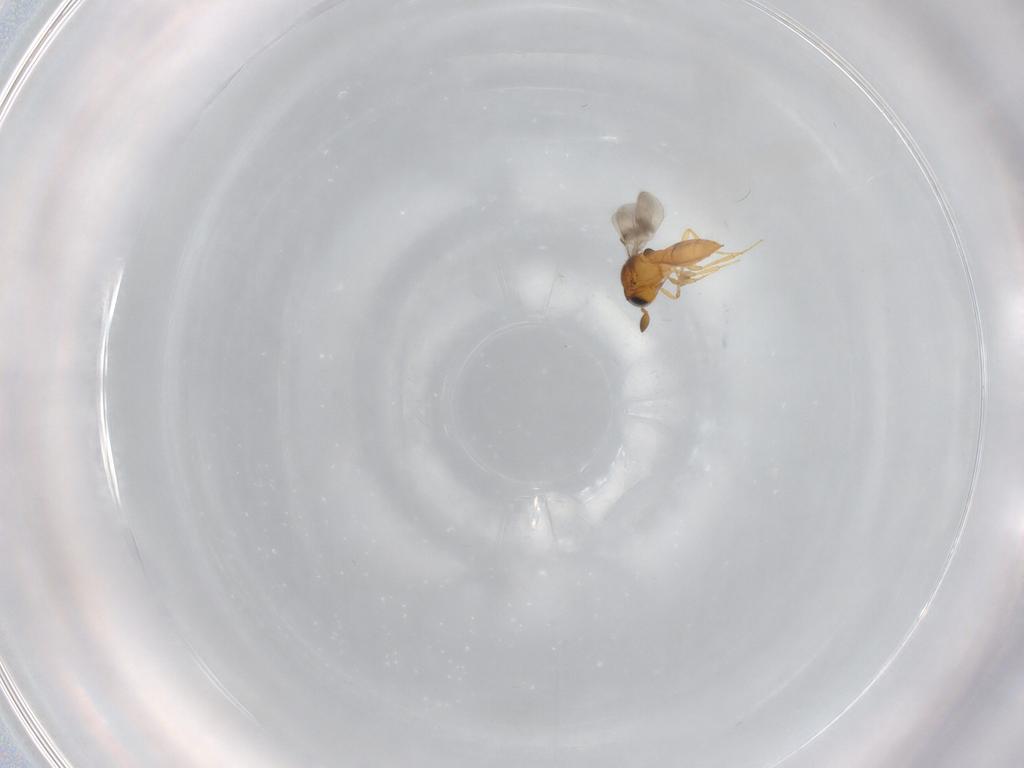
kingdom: Animalia
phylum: Arthropoda
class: Insecta
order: Hymenoptera
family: Scelionidae
